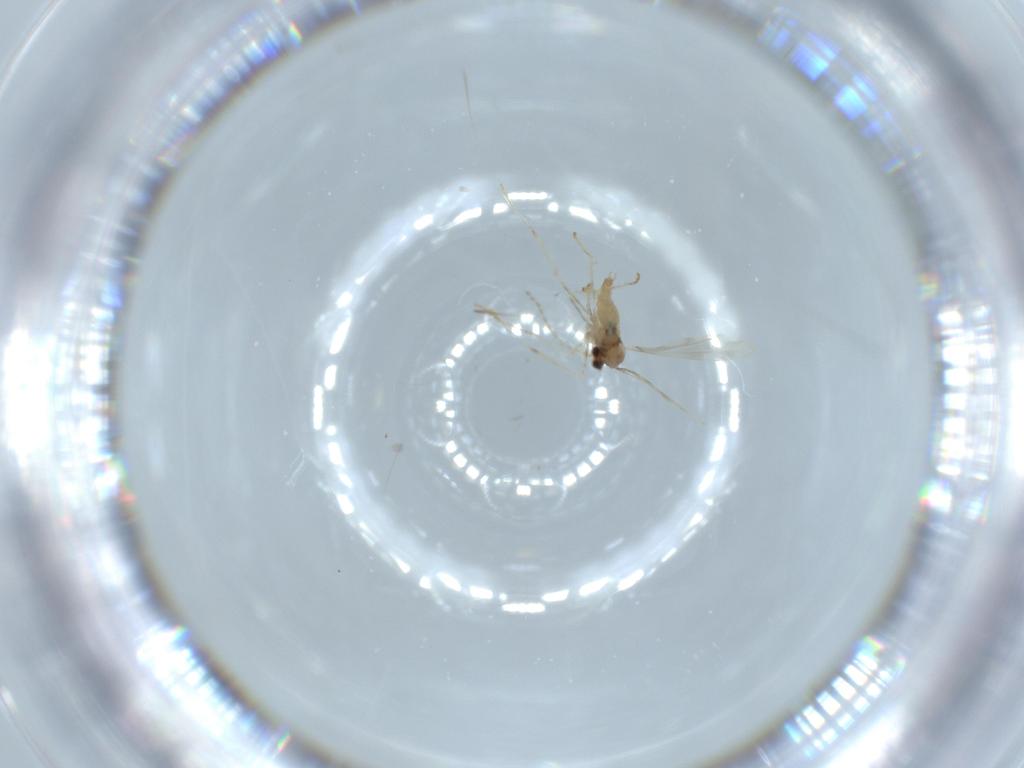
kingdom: Animalia
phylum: Arthropoda
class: Insecta
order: Diptera
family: Cecidomyiidae
